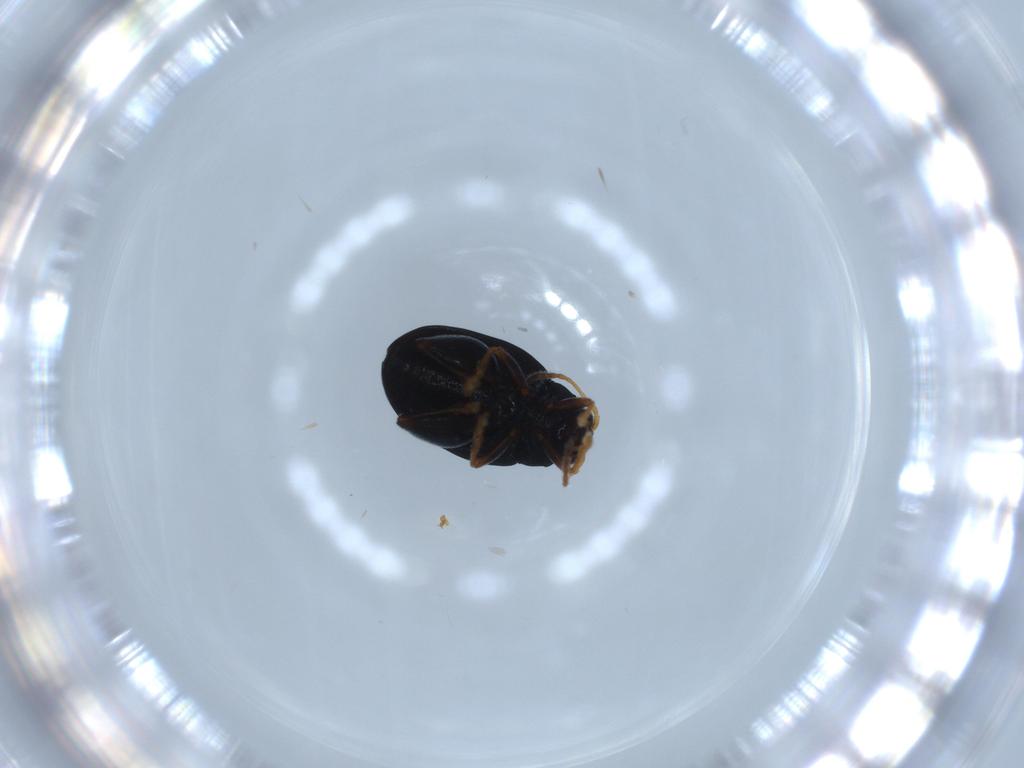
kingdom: Animalia
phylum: Arthropoda
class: Insecta
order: Coleoptera
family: Chrysomelidae
